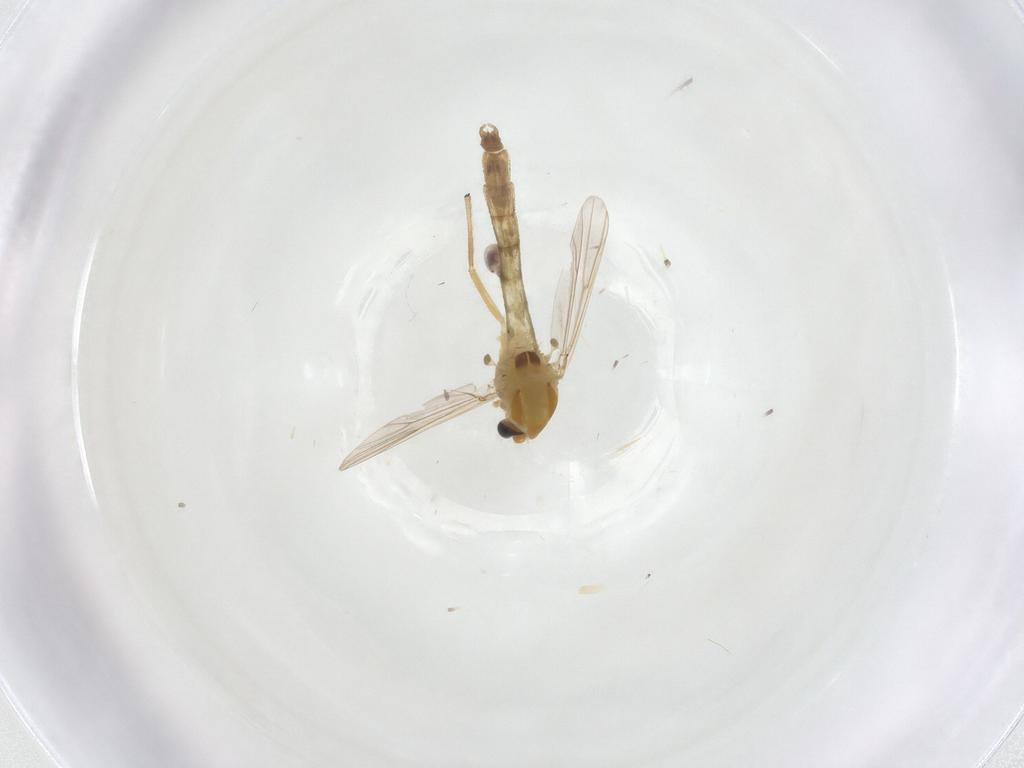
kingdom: Animalia
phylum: Arthropoda
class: Insecta
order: Diptera
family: Chironomidae
